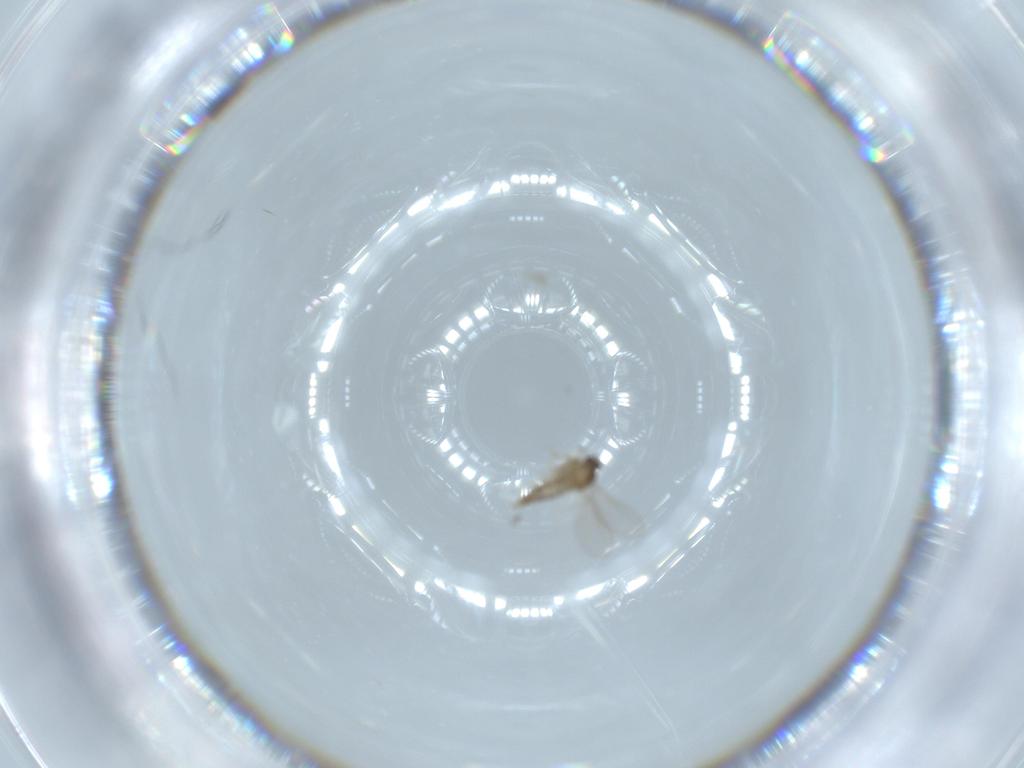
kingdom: Animalia
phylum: Arthropoda
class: Insecta
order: Diptera
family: Cecidomyiidae
